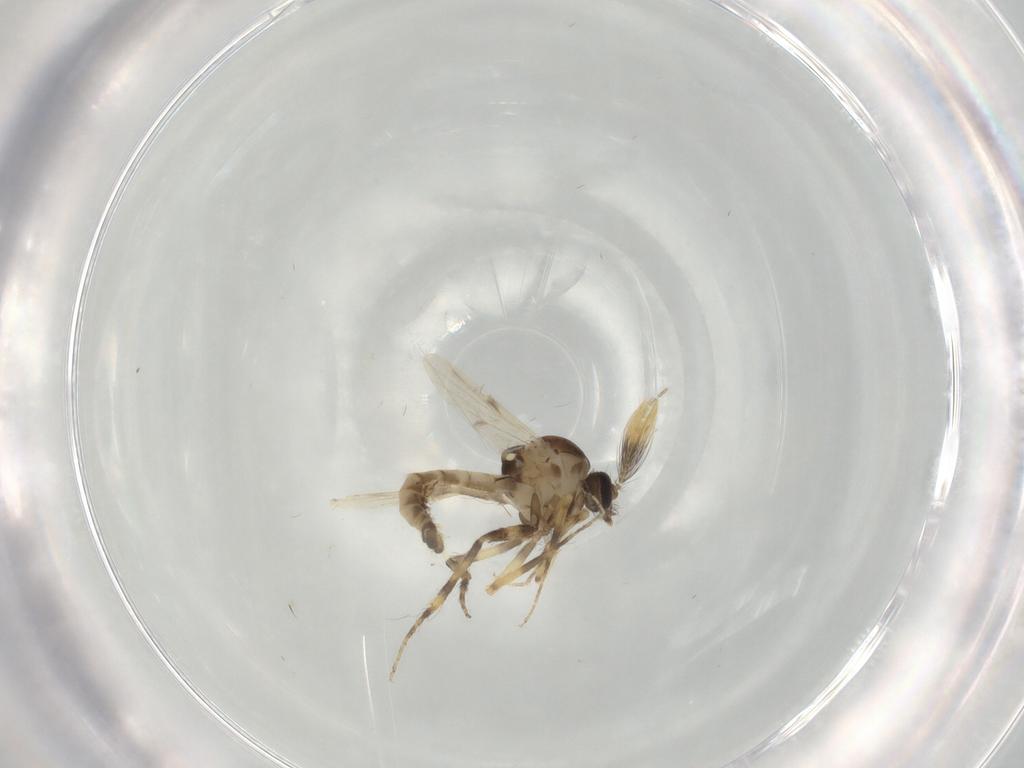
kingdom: Animalia
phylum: Arthropoda
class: Insecta
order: Diptera
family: Ceratopogonidae
